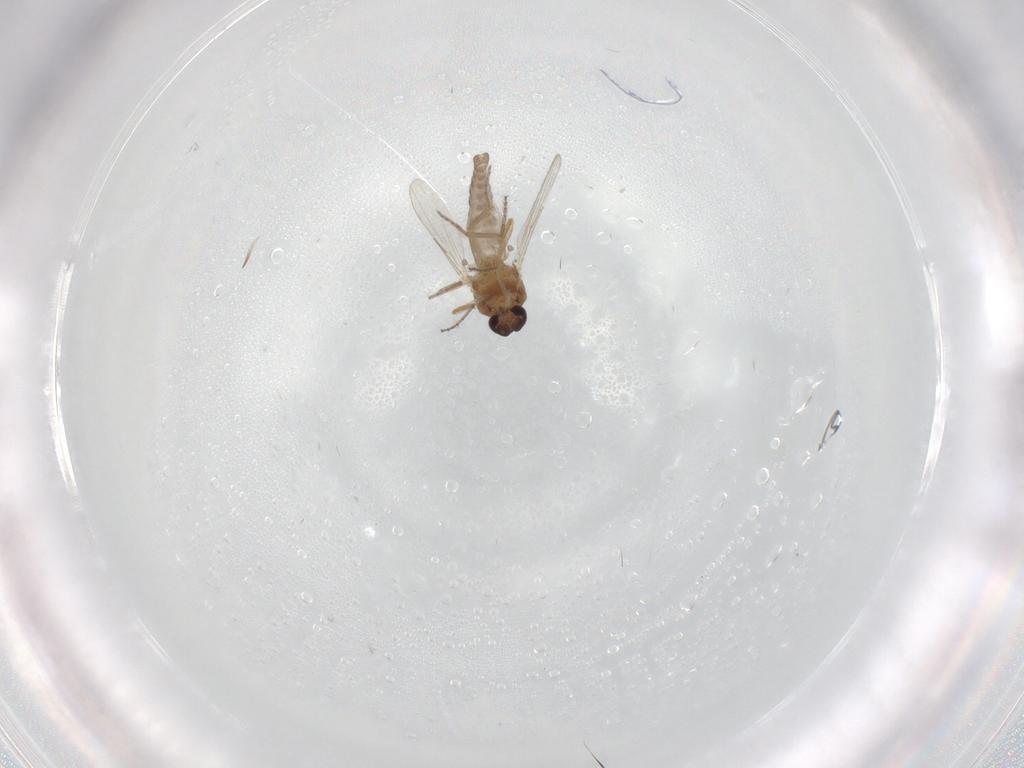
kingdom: Animalia
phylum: Arthropoda
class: Insecta
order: Diptera
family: Ceratopogonidae
